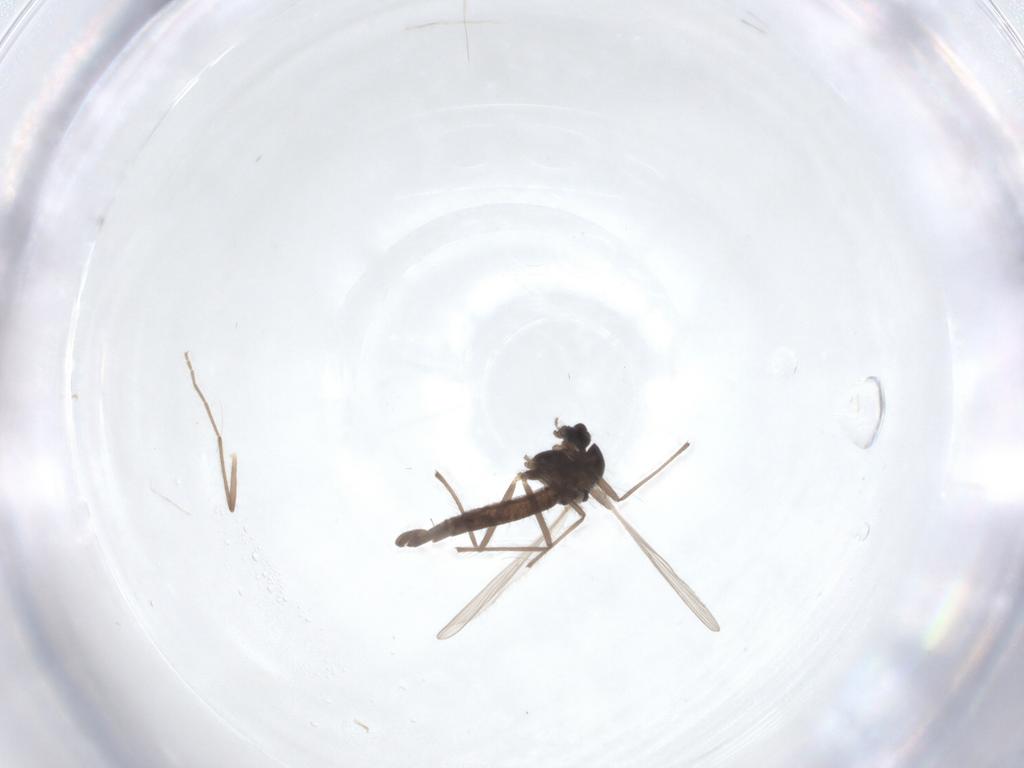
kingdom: Animalia
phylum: Arthropoda
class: Insecta
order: Diptera
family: Chironomidae
